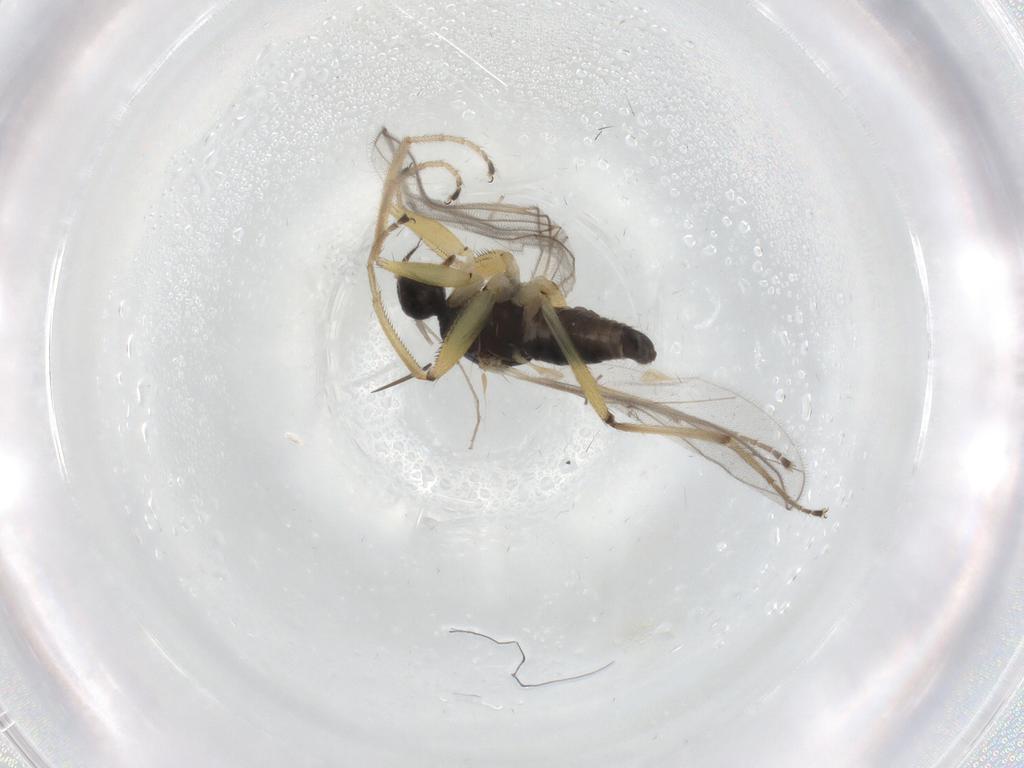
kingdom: Animalia
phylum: Arthropoda
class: Insecta
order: Diptera
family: Hybotidae
